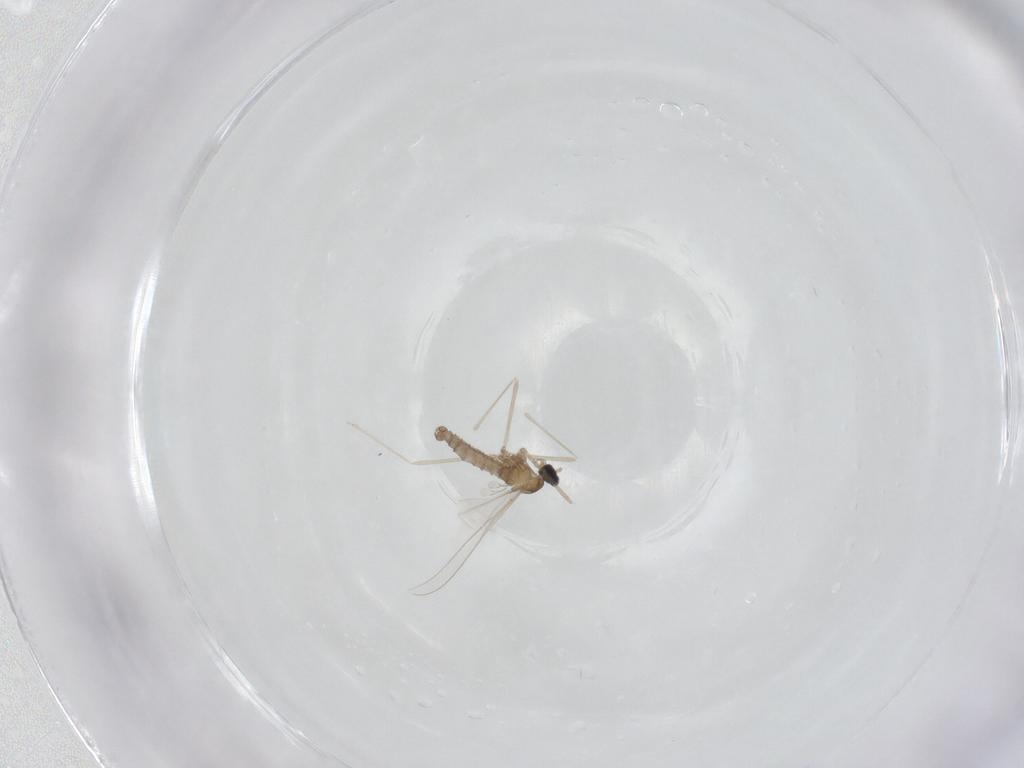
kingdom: Animalia
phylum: Arthropoda
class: Insecta
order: Diptera
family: Cecidomyiidae
